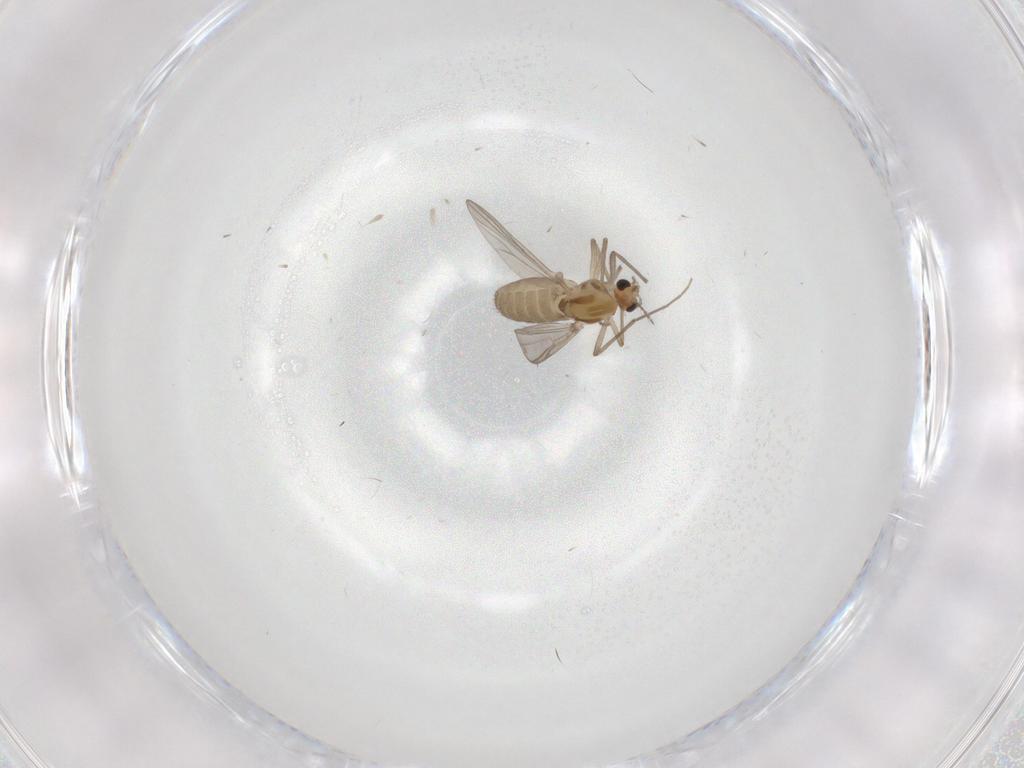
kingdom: Animalia
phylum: Arthropoda
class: Insecta
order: Diptera
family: Chironomidae
